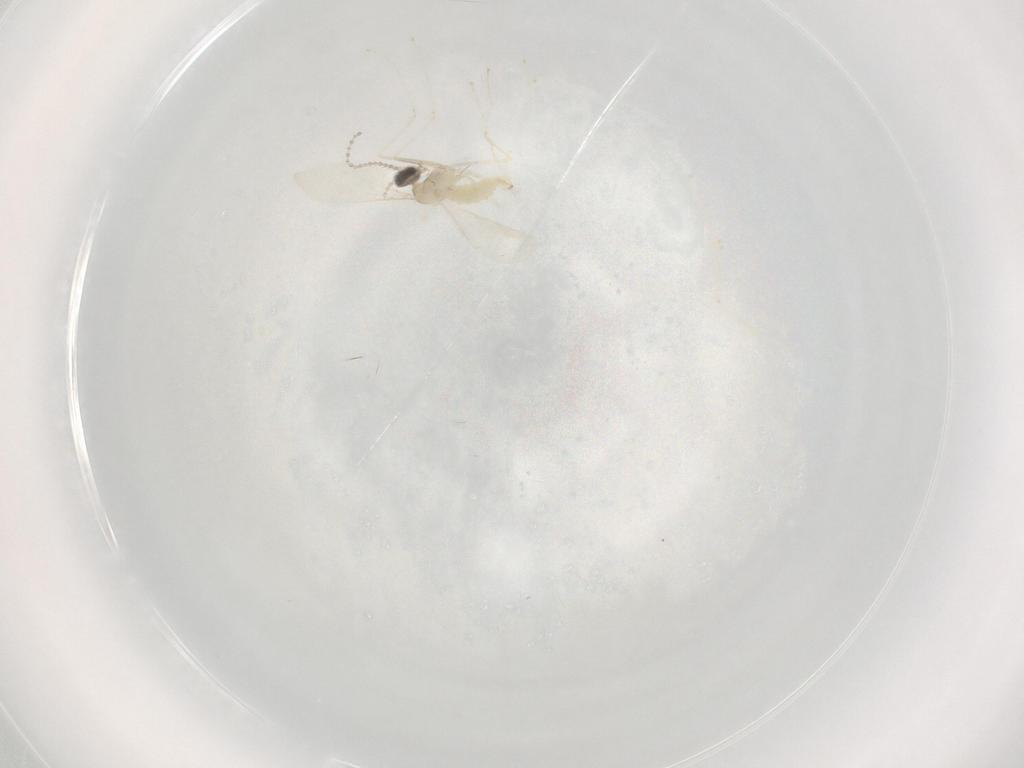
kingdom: Animalia
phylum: Arthropoda
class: Insecta
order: Diptera
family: Cecidomyiidae
